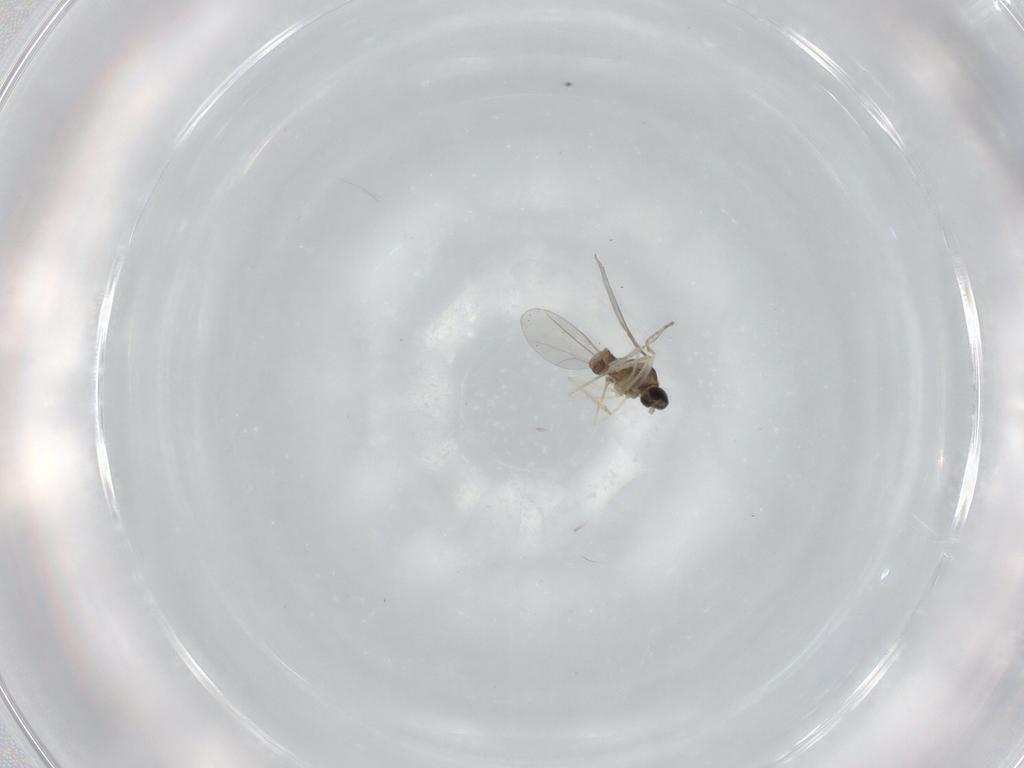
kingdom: Animalia
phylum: Arthropoda
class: Insecta
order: Diptera
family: Cecidomyiidae
